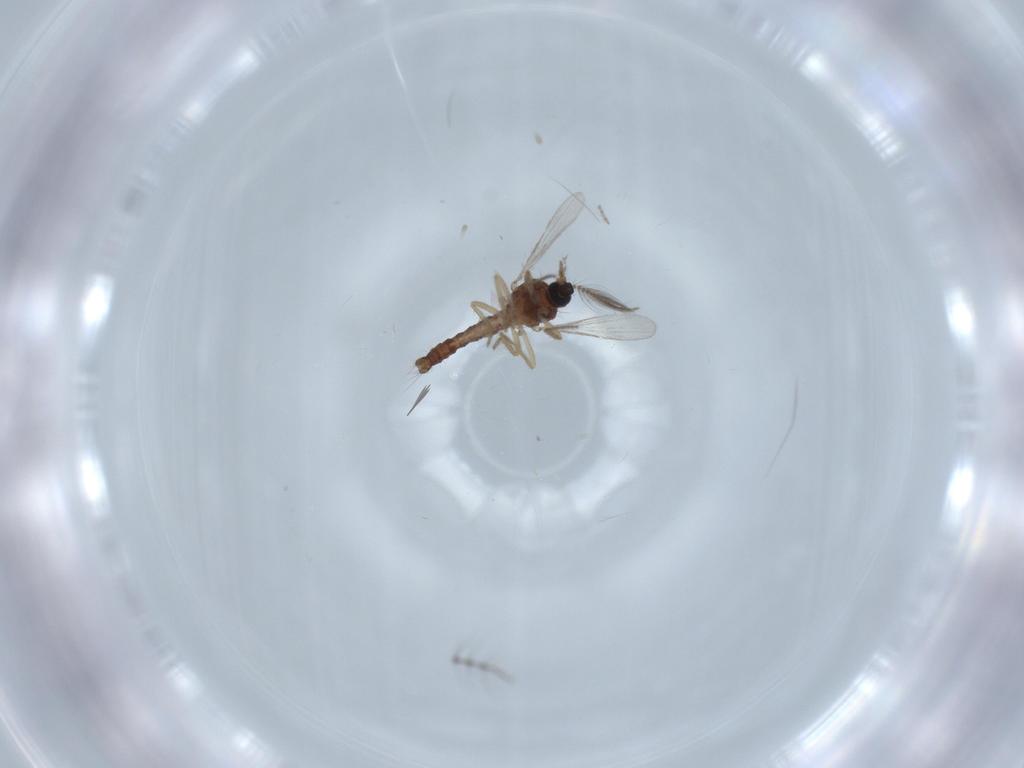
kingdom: Animalia
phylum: Arthropoda
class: Insecta
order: Diptera
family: Chironomidae
